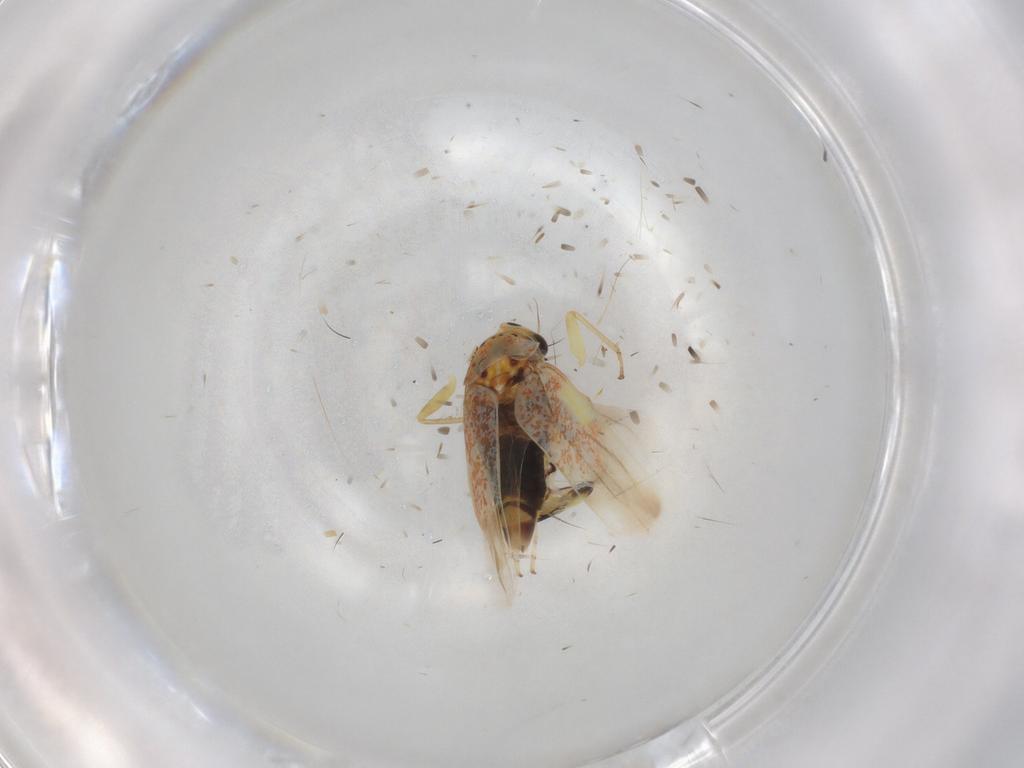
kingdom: Animalia
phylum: Arthropoda
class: Insecta
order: Hemiptera
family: Cicadellidae
